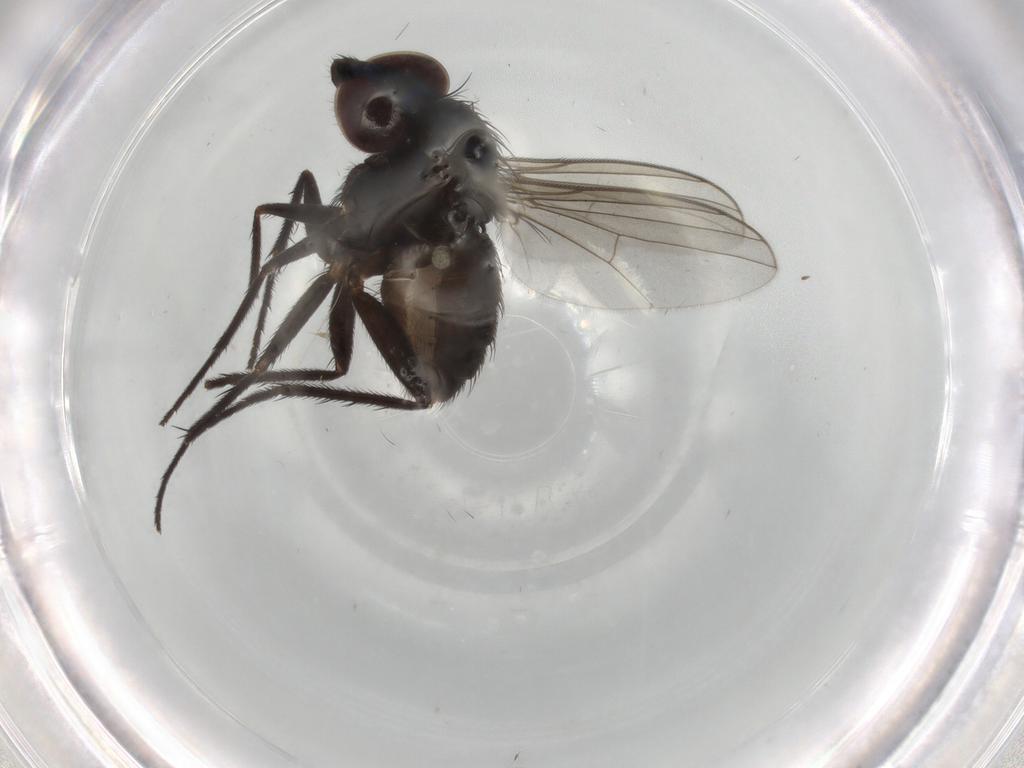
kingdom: Animalia
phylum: Arthropoda
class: Insecta
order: Diptera
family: Dolichopodidae
